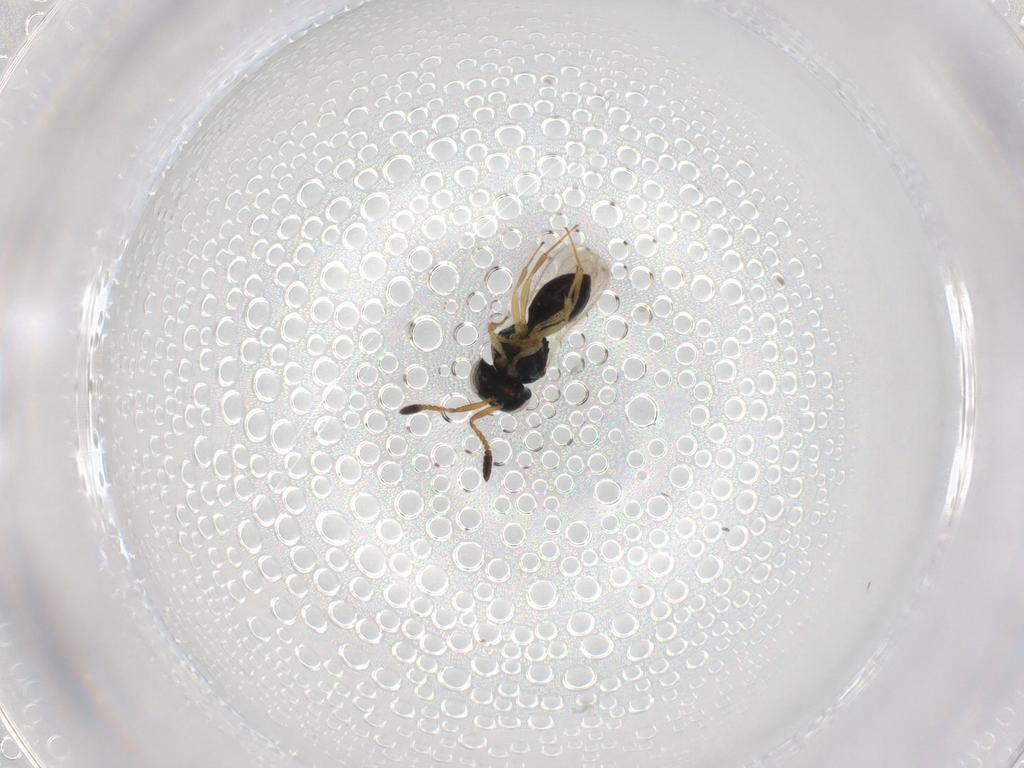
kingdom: Animalia
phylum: Arthropoda
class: Insecta
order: Hymenoptera
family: Scelionidae
